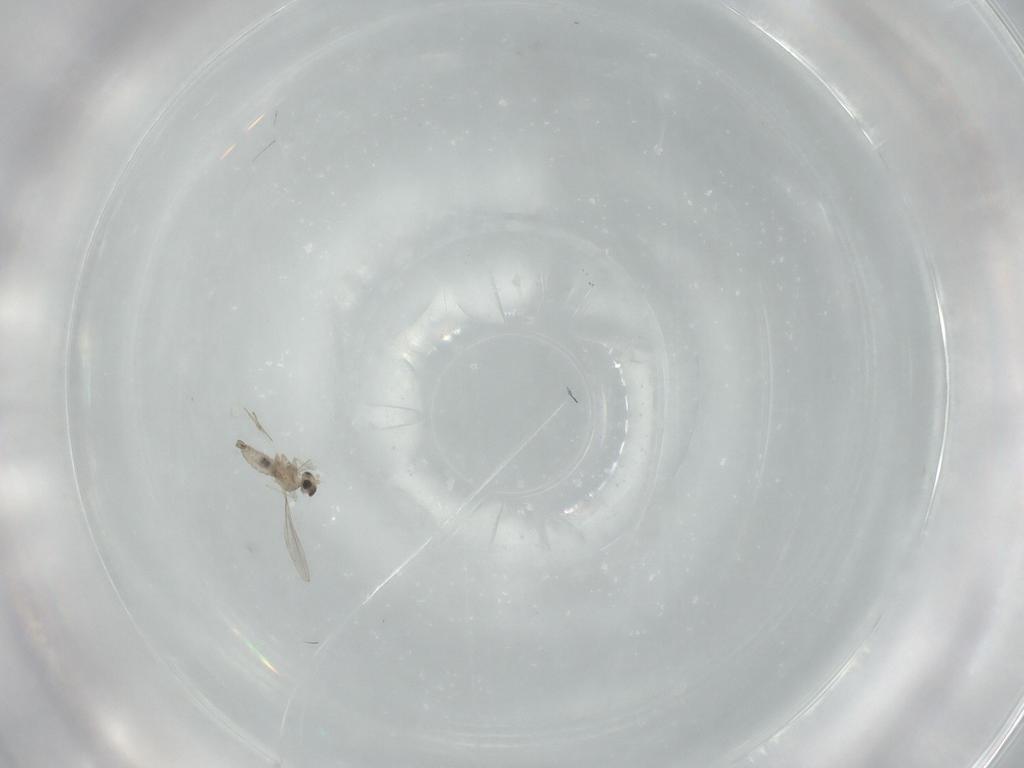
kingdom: Animalia
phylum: Arthropoda
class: Insecta
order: Diptera
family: Cecidomyiidae
